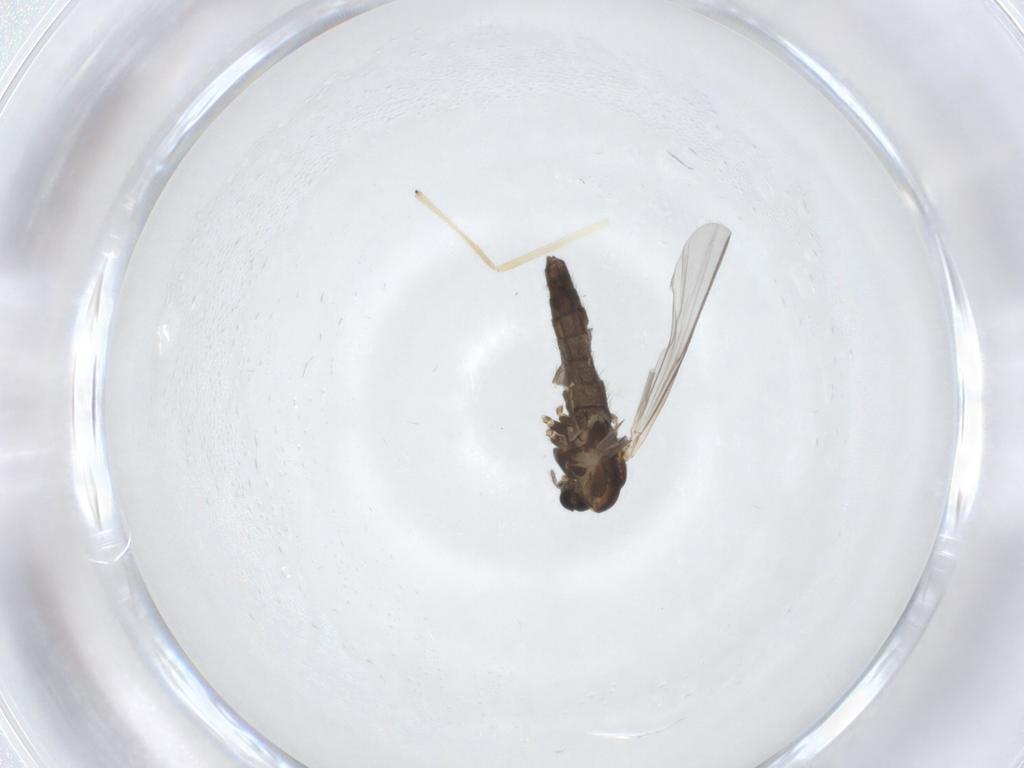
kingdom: Animalia
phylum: Arthropoda
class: Insecta
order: Diptera
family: Chironomidae
